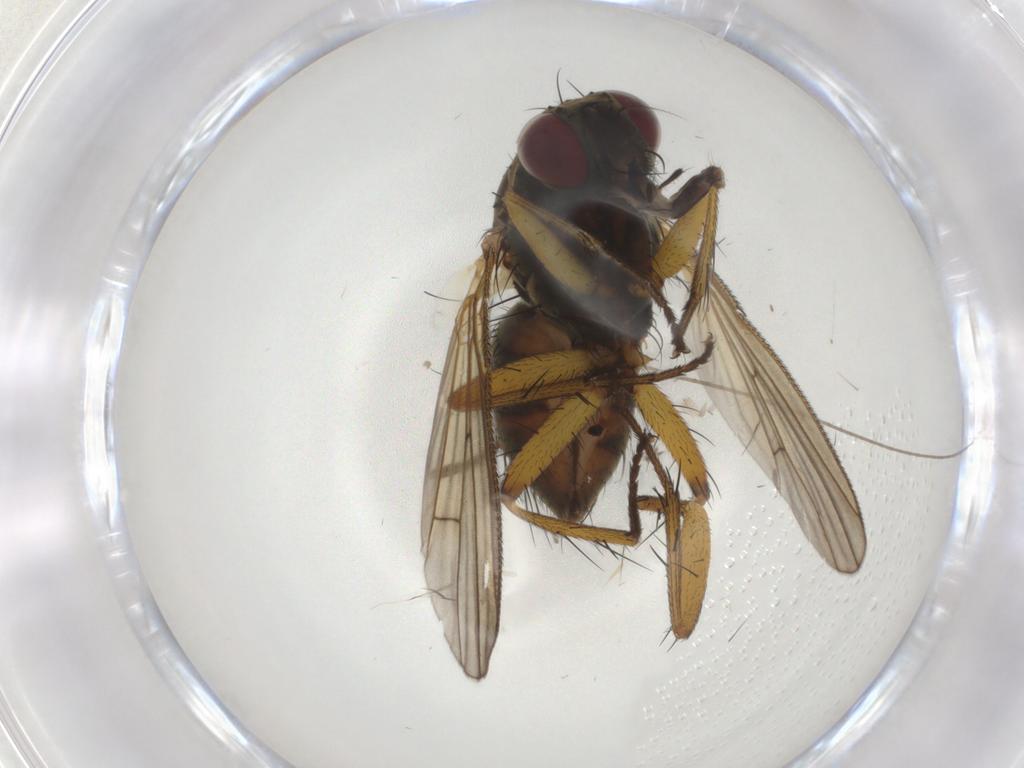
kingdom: Animalia
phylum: Arthropoda
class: Insecta
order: Diptera
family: Muscidae
